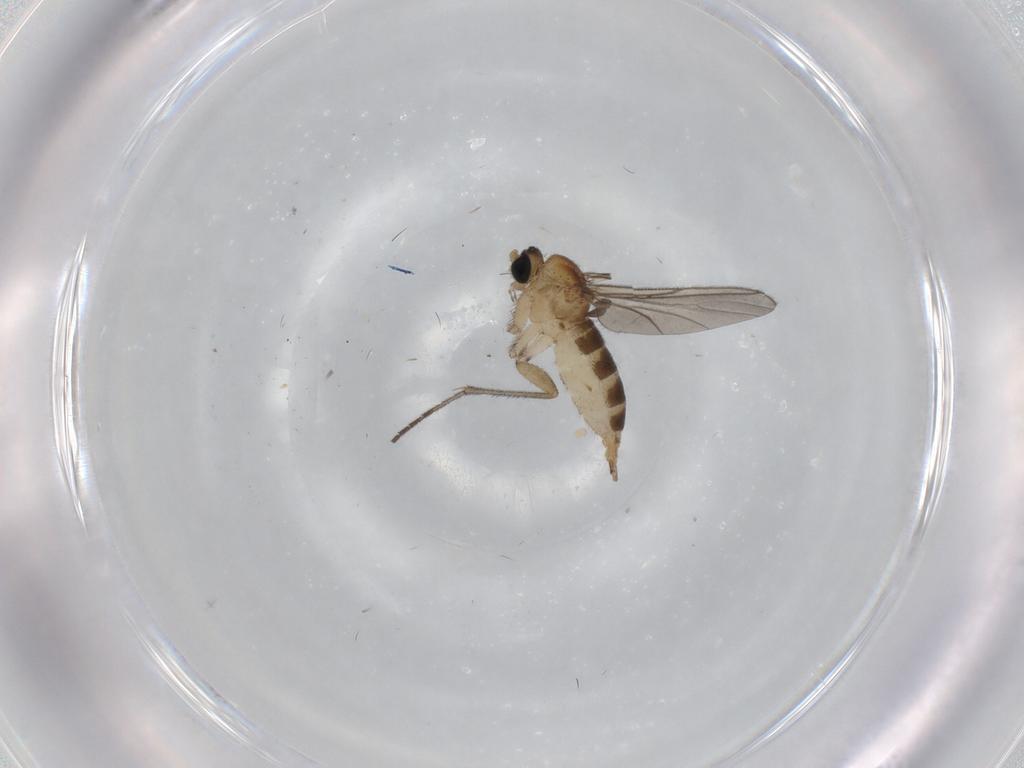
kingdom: Animalia
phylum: Arthropoda
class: Insecta
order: Diptera
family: Sciaridae
